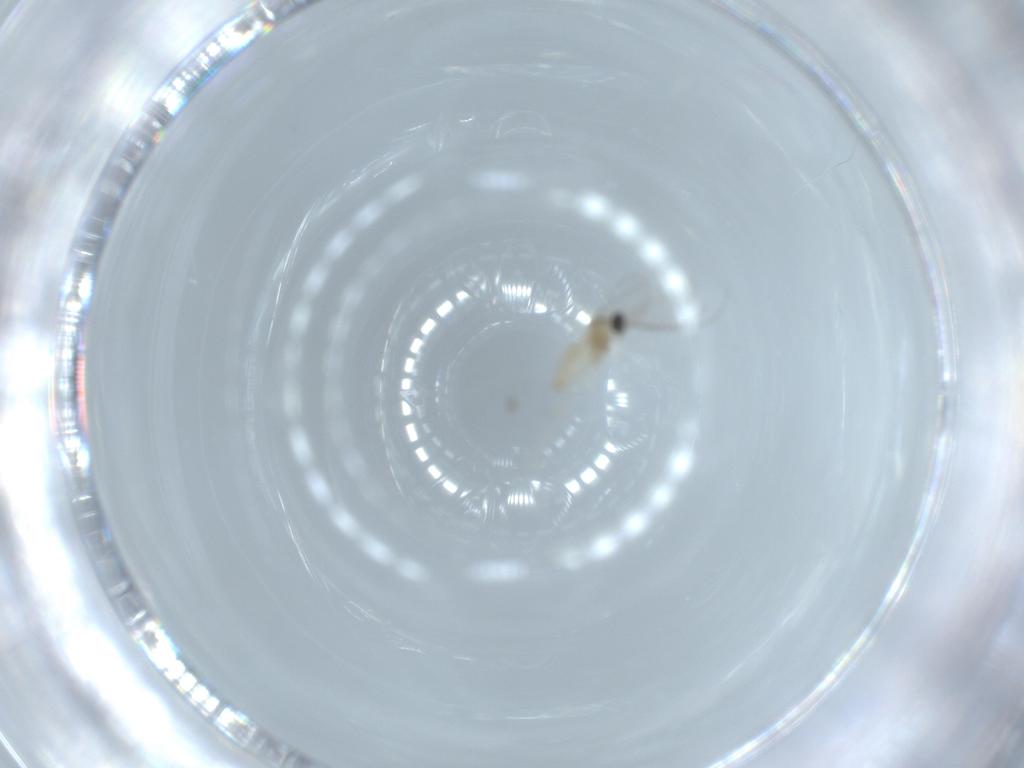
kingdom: Animalia
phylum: Arthropoda
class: Insecta
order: Diptera
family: Cecidomyiidae
